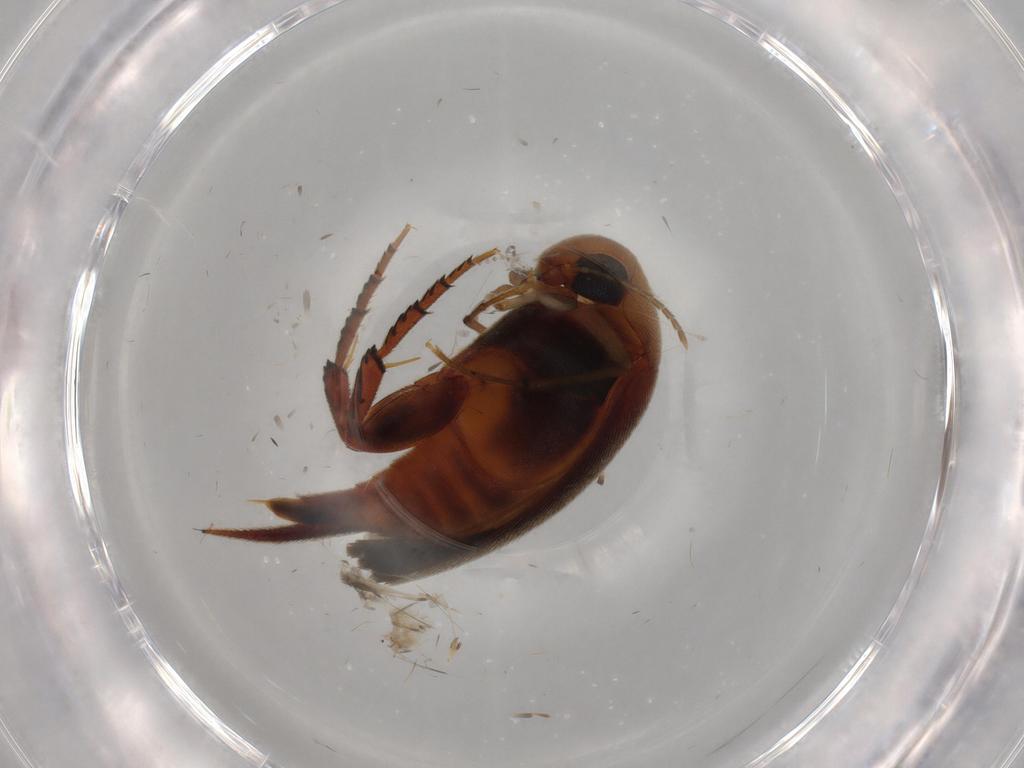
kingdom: Animalia
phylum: Arthropoda
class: Insecta
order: Coleoptera
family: Mordellidae
